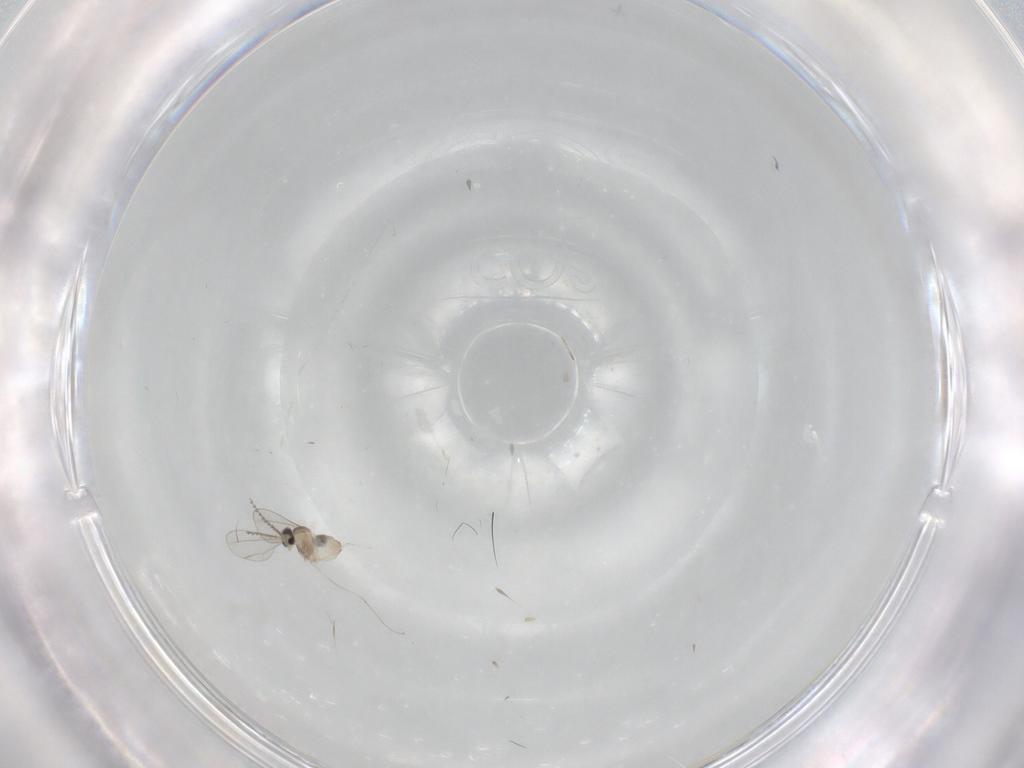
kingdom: Animalia
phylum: Arthropoda
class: Insecta
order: Diptera
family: Cecidomyiidae
